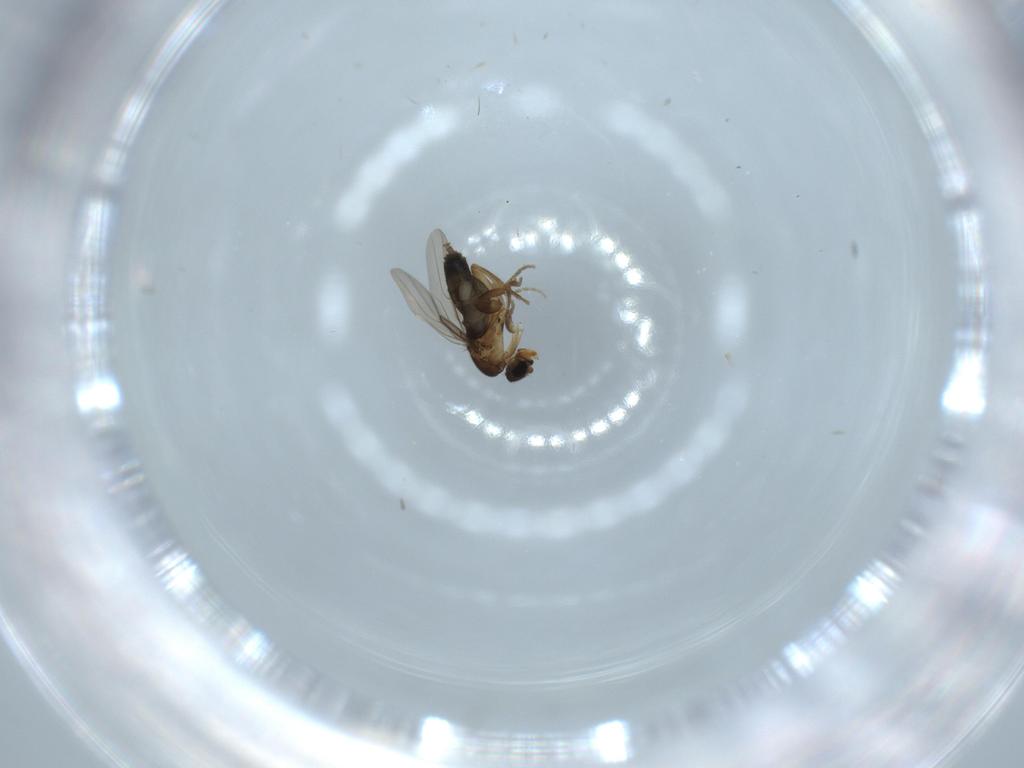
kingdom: Animalia
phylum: Arthropoda
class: Insecta
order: Diptera
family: Phoridae
